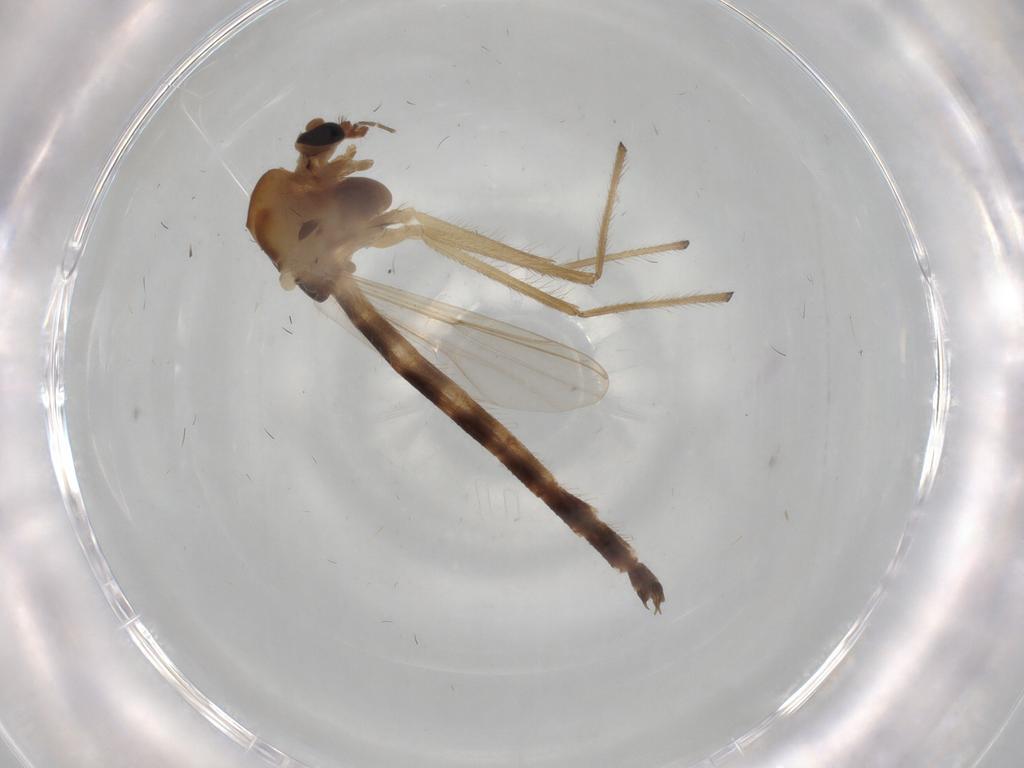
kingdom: Animalia
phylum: Arthropoda
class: Insecta
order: Diptera
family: Chironomidae
